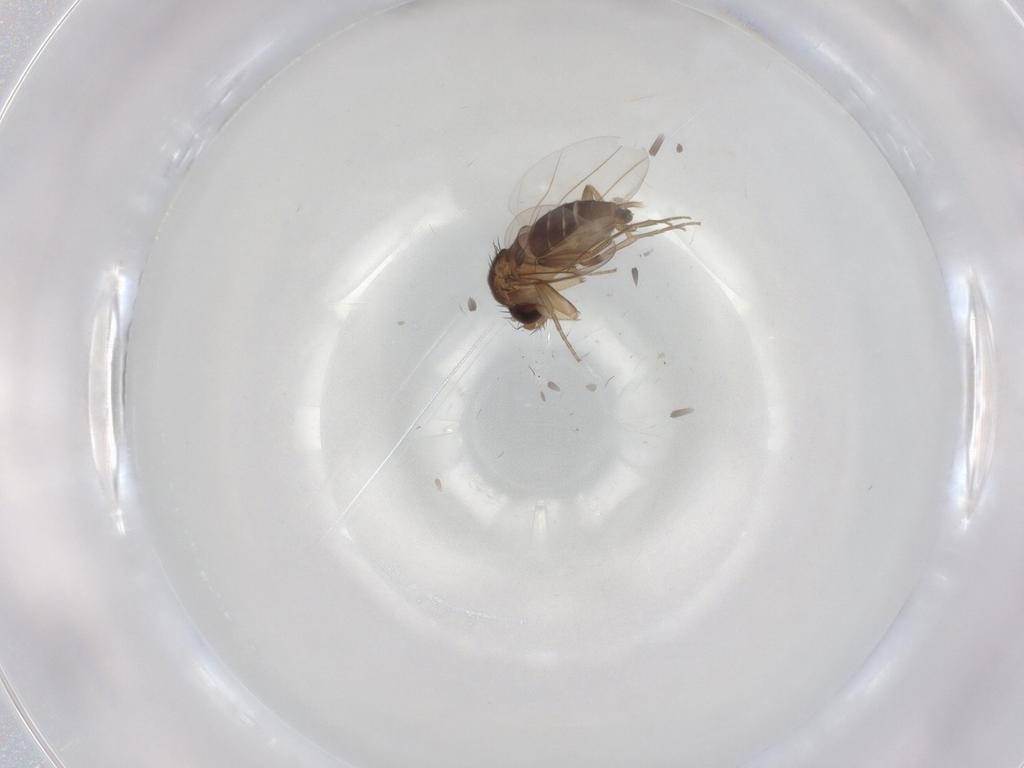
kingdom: Animalia
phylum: Arthropoda
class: Insecta
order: Diptera
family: Phoridae
